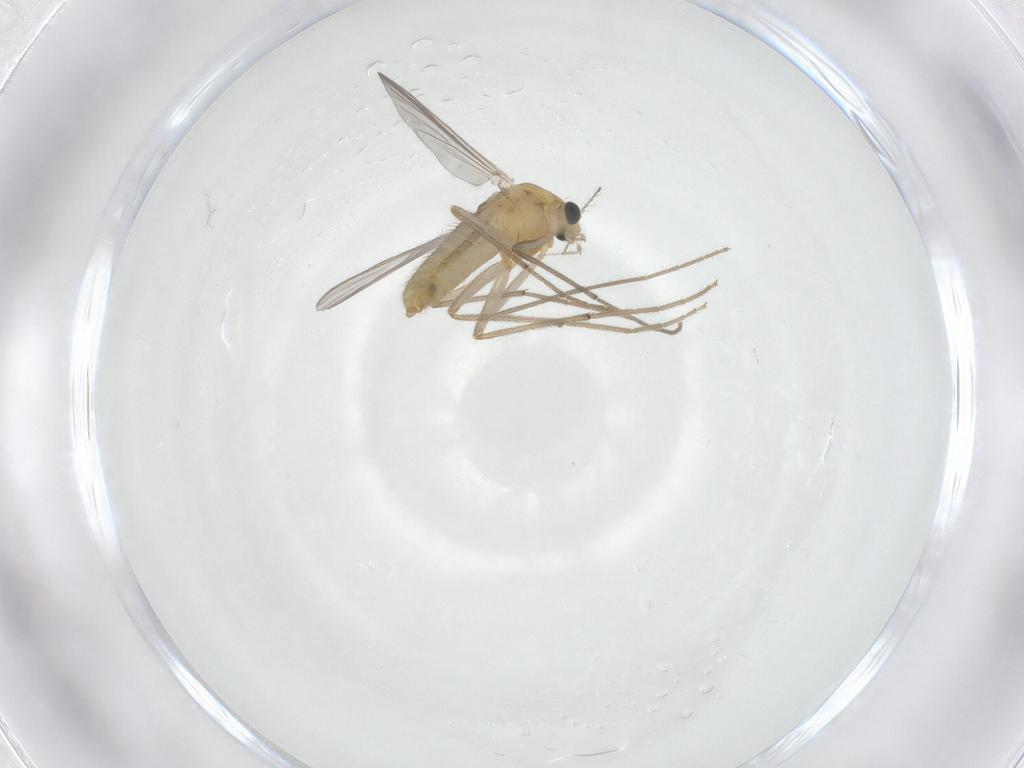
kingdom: Animalia
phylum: Arthropoda
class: Insecta
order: Diptera
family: Chironomidae
